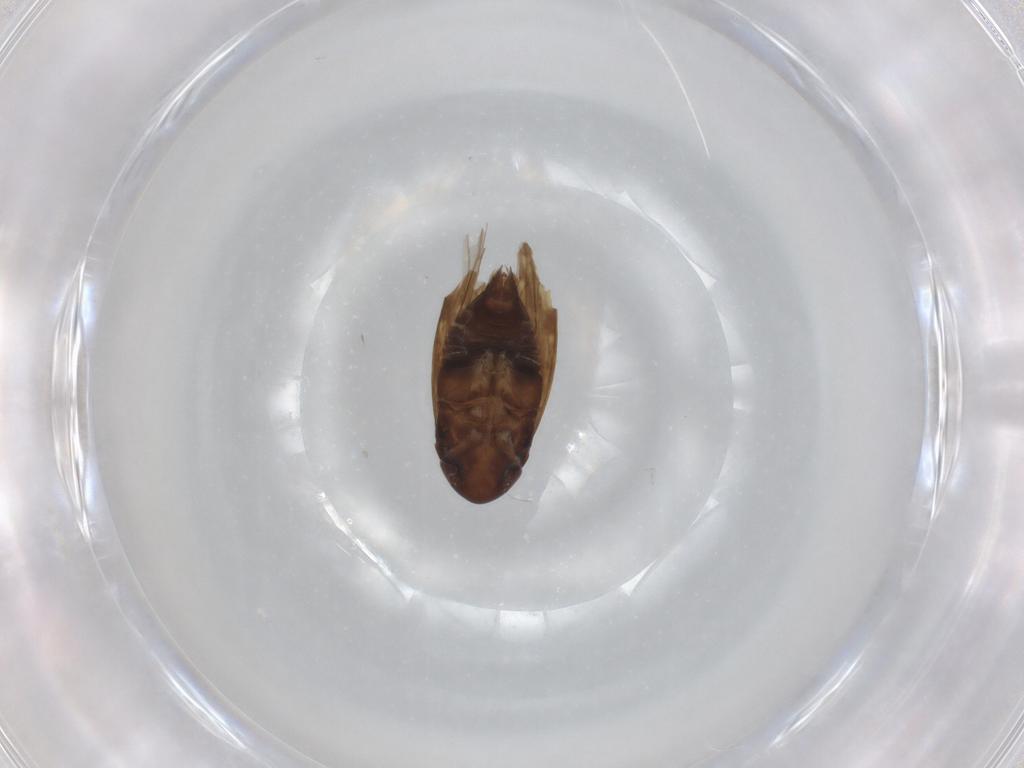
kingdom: Animalia
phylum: Arthropoda
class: Insecta
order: Hemiptera
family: Cicadellidae
